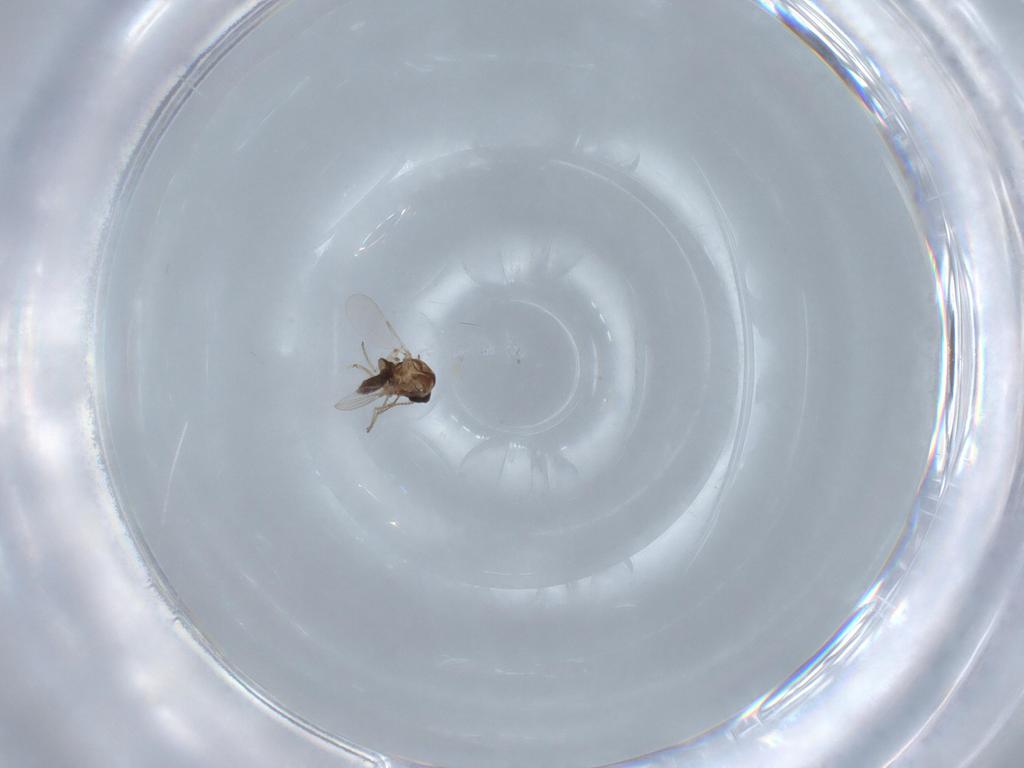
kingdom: Animalia
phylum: Arthropoda
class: Insecta
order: Diptera
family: Ceratopogonidae
